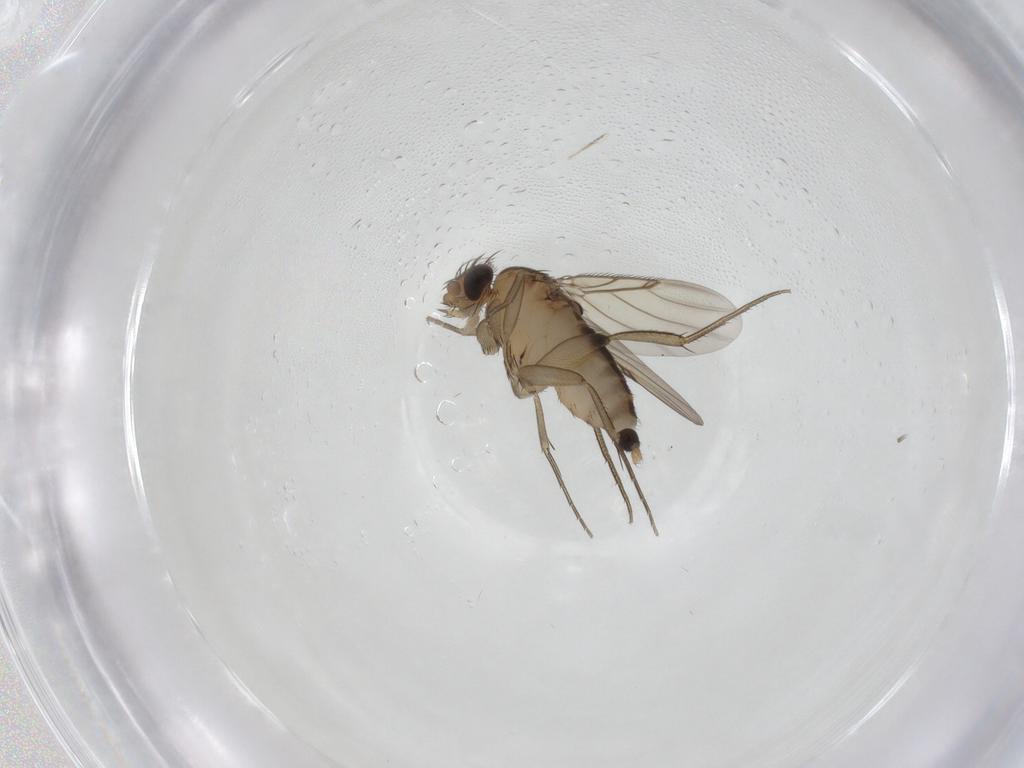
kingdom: Animalia
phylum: Arthropoda
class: Insecta
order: Diptera
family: Phoridae
